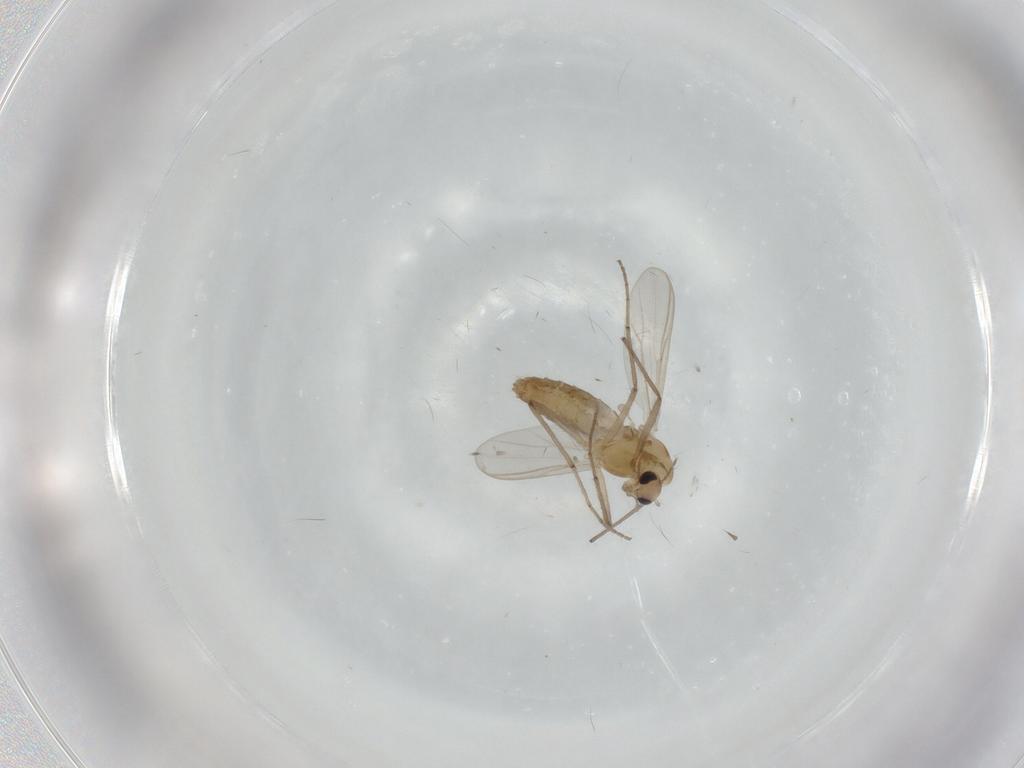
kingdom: Animalia
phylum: Arthropoda
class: Insecta
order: Diptera
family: Chironomidae
